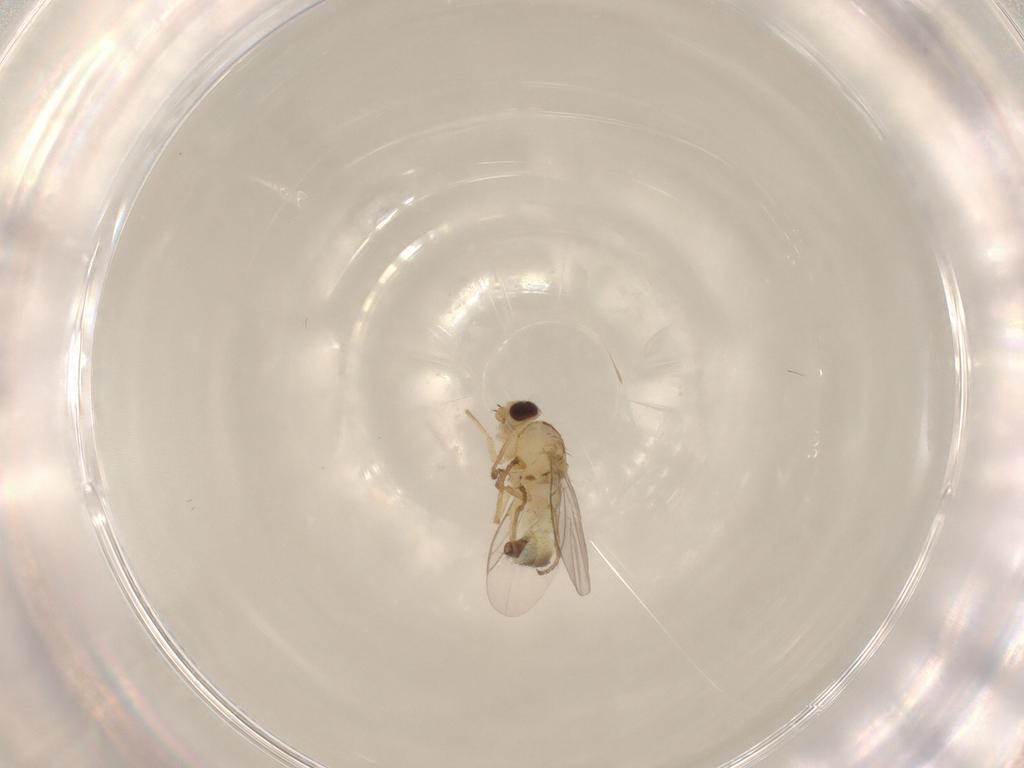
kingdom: Animalia
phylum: Arthropoda
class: Insecta
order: Diptera
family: Agromyzidae
